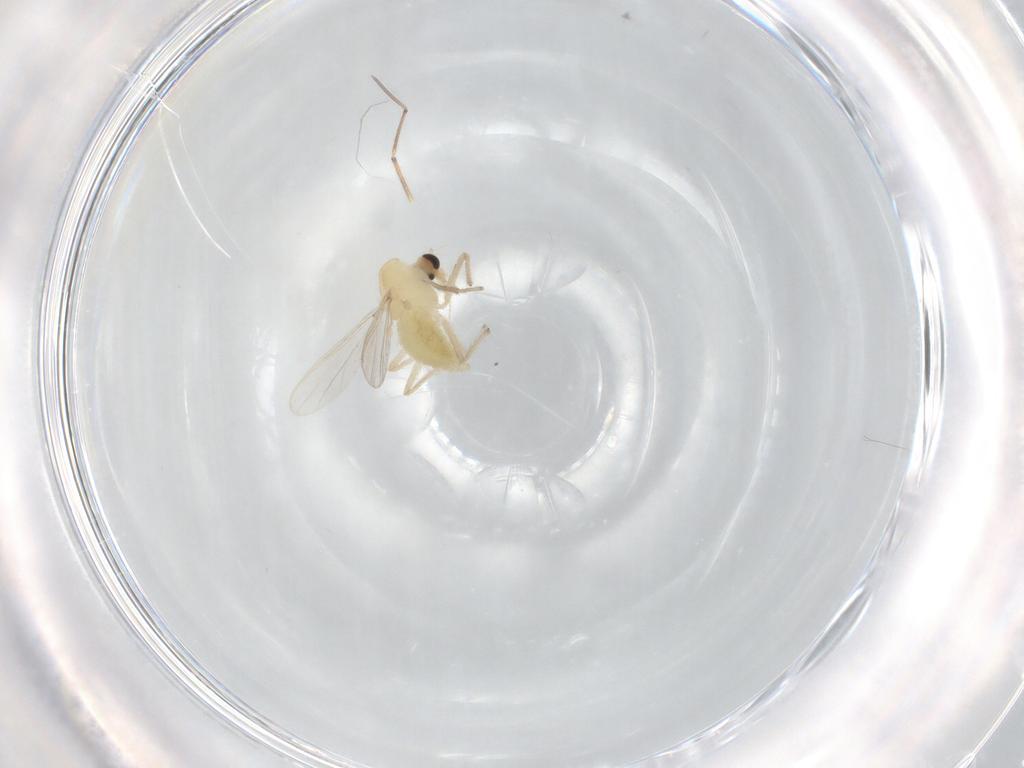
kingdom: Animalia
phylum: Arthropoda
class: Insecta
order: Diptera
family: Chironomidae
